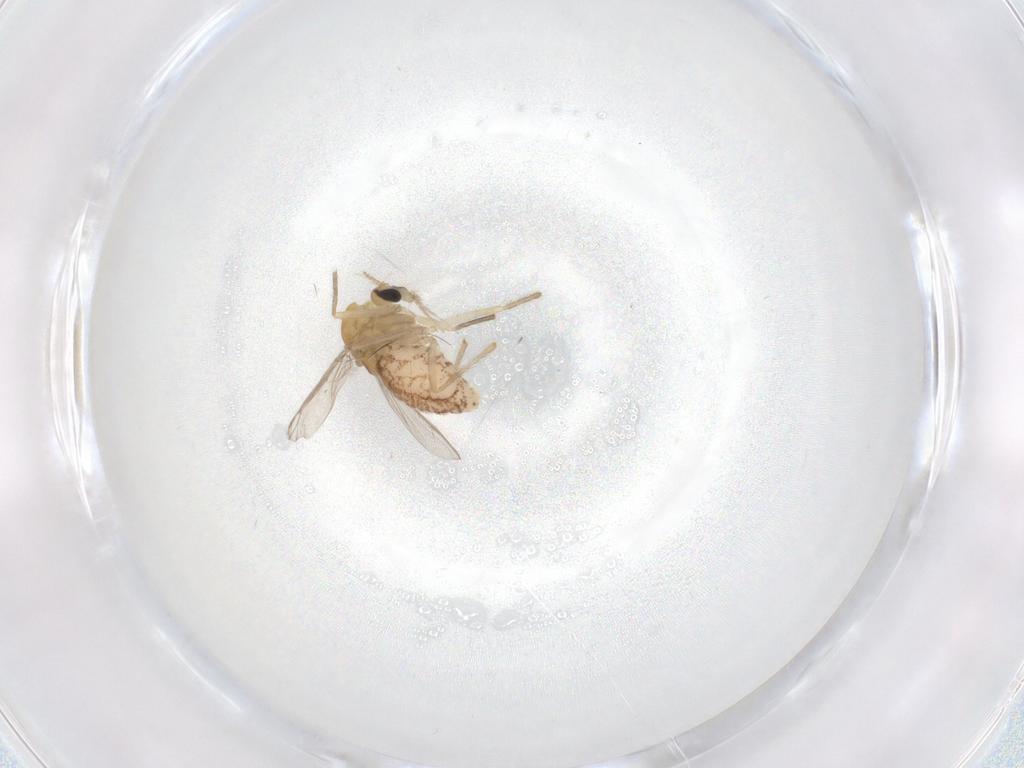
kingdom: Animalia
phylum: Arthropoda
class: Insecta
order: Diptera
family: Chironomidae
